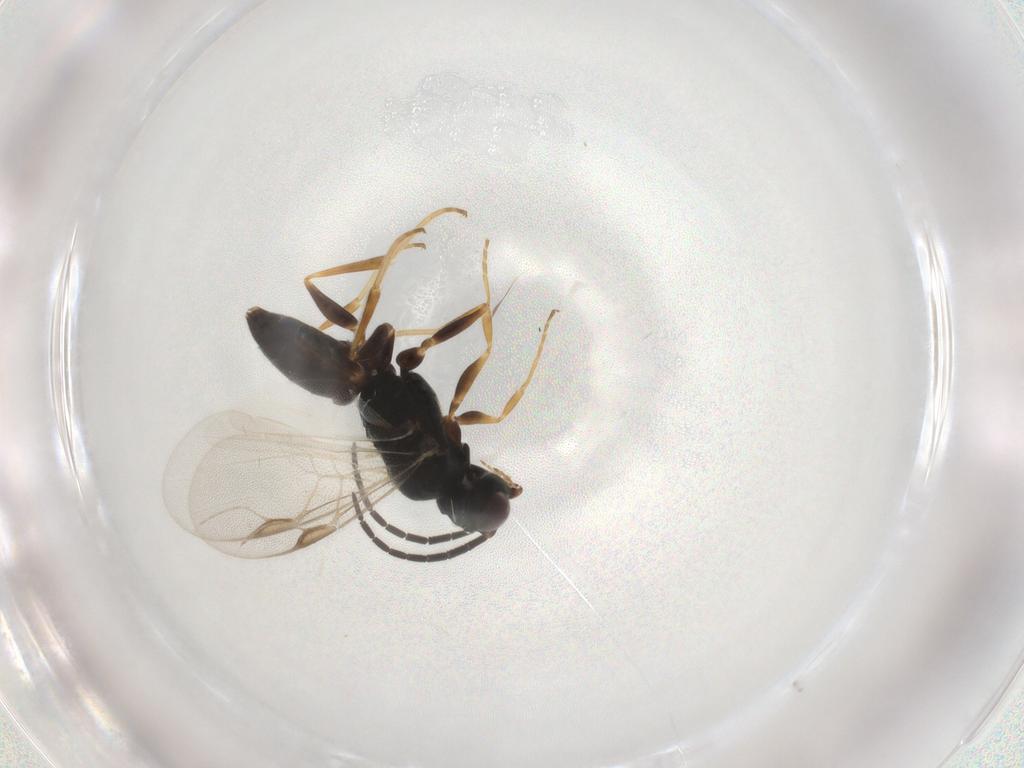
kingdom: Animalia
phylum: Arthropoda
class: Insecta
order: Hymenoptera
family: Dryinidae
